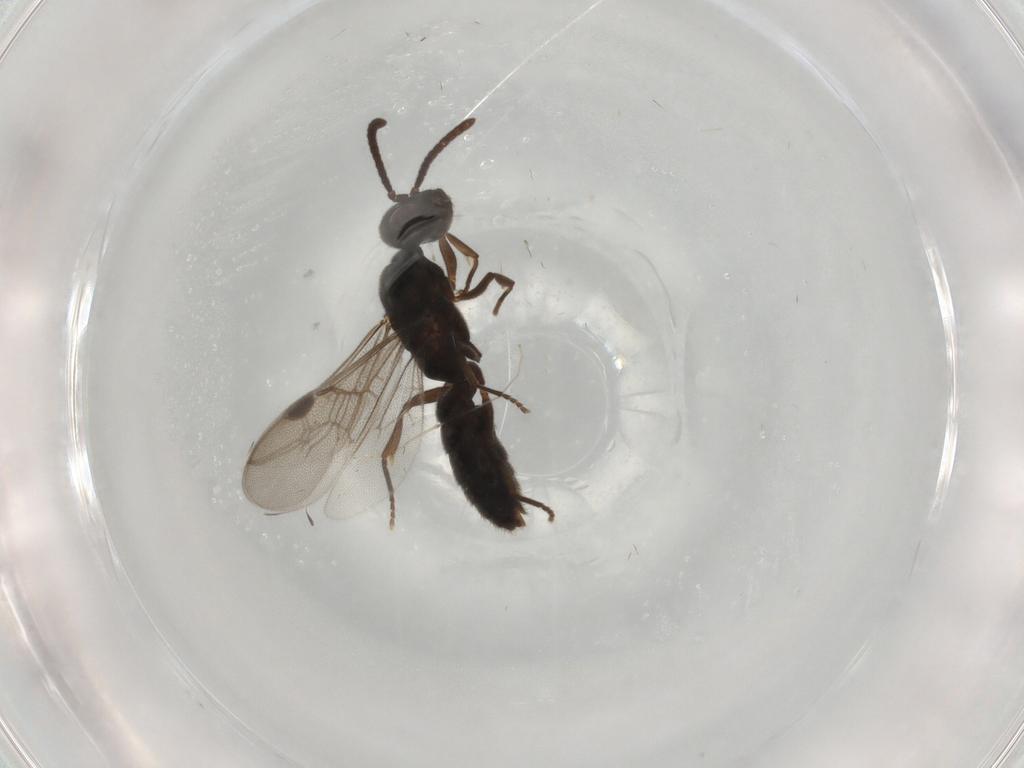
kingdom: Animalia
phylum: Arthropoda
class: Insecta
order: Hymenoptera
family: Formicidae
